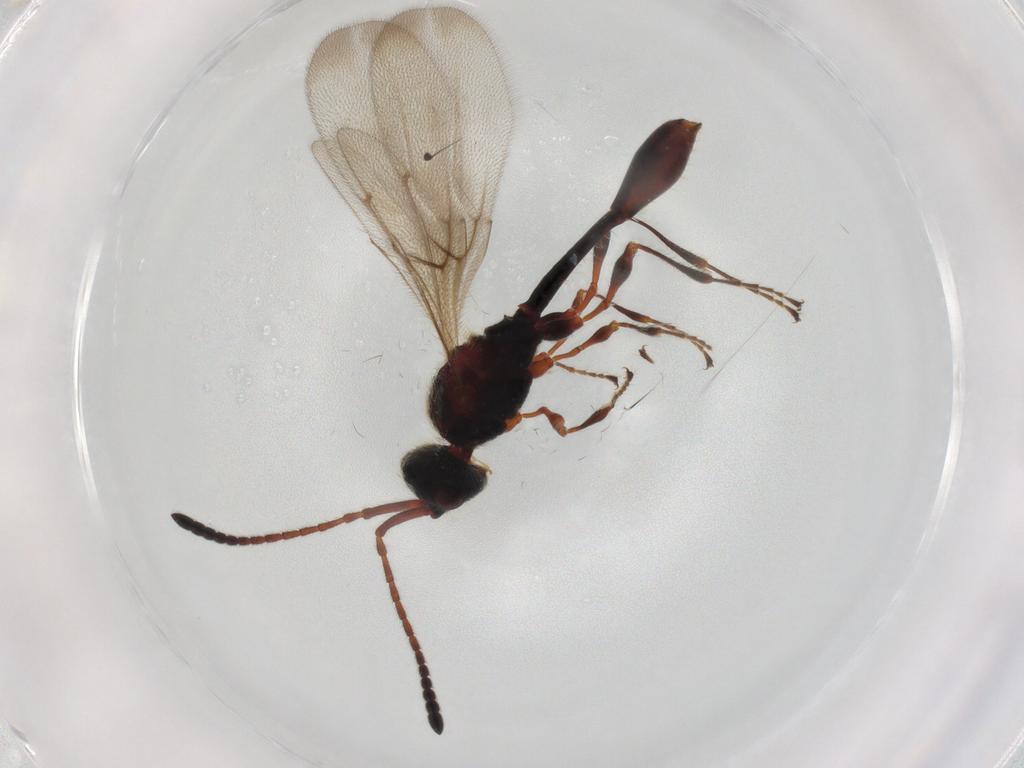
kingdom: Animalia
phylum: Arthropoda
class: Insecta
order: Hymenoptera
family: Diapriidae
